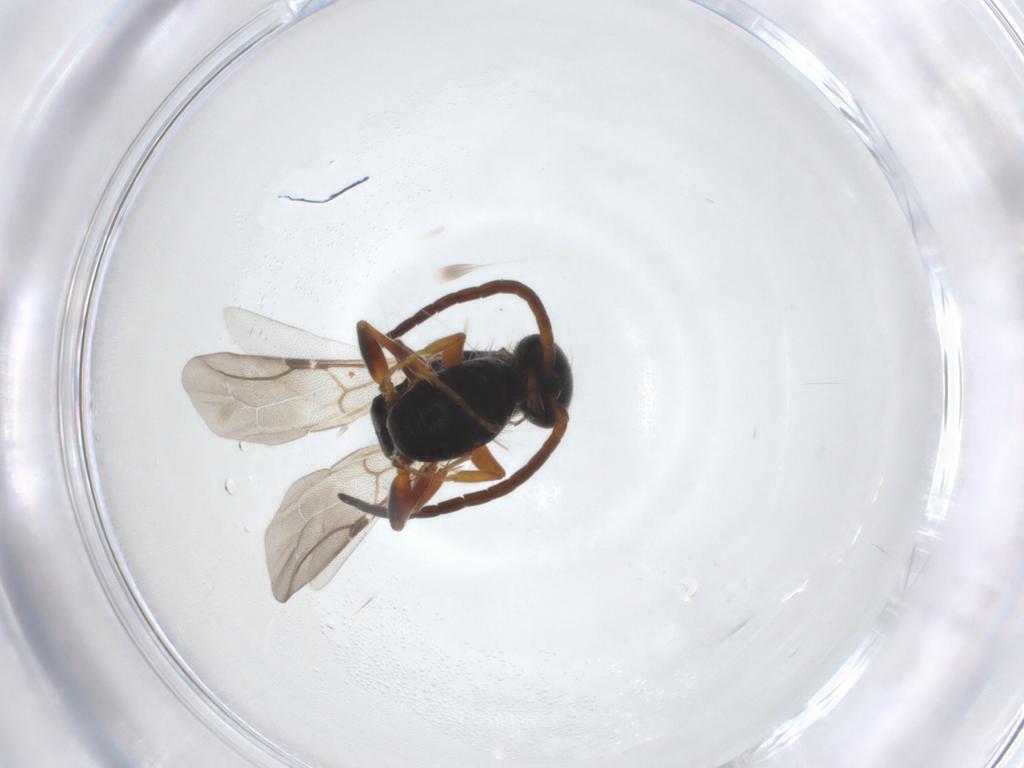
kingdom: Animalia
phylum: Arthropoda
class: Insecta
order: Hymenoptera
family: Bethylidae
